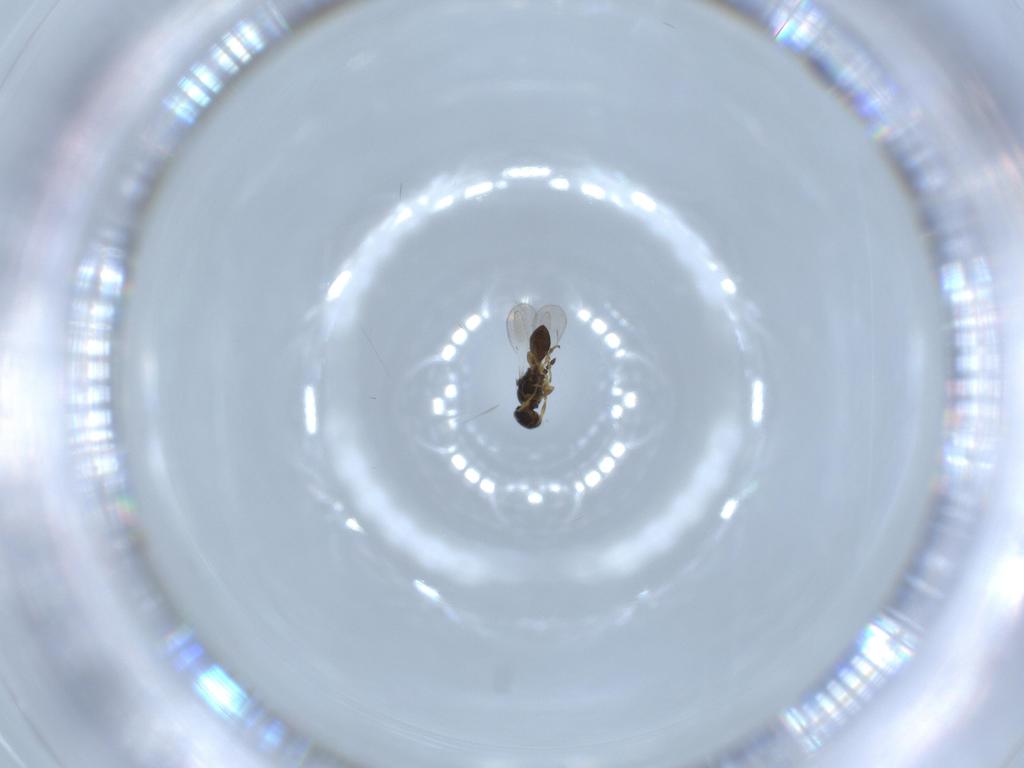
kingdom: Animalia
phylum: Arthropoda
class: Insecta
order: Hymenoptera
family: Platygastridae
